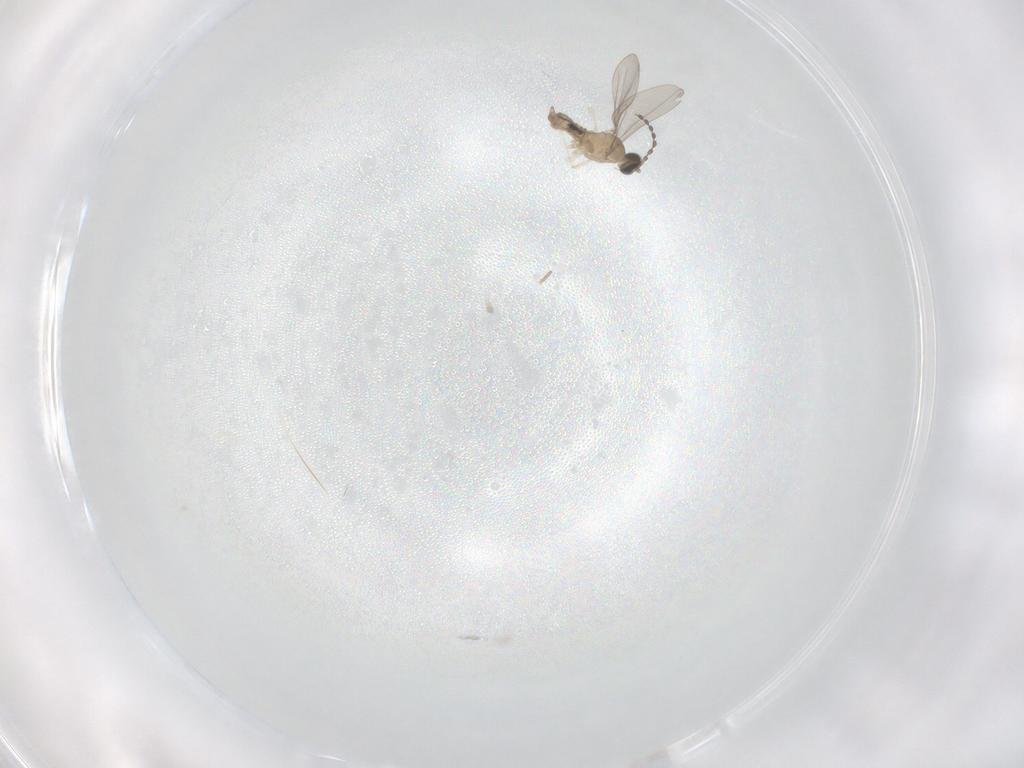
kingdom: Animalia
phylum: Arthropoda
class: Insecta
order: Diptera
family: Cecidomyiidae
